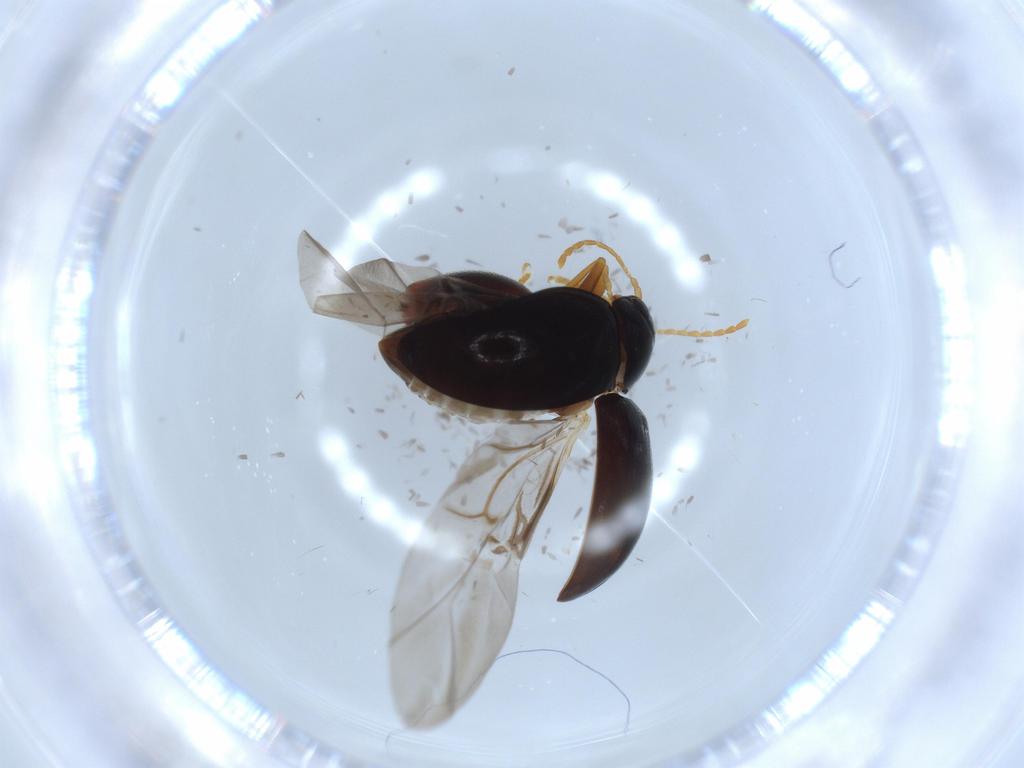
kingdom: Animalia
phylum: Arthropoda
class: Insecta
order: Coleoptera
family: Chrysomelidae
